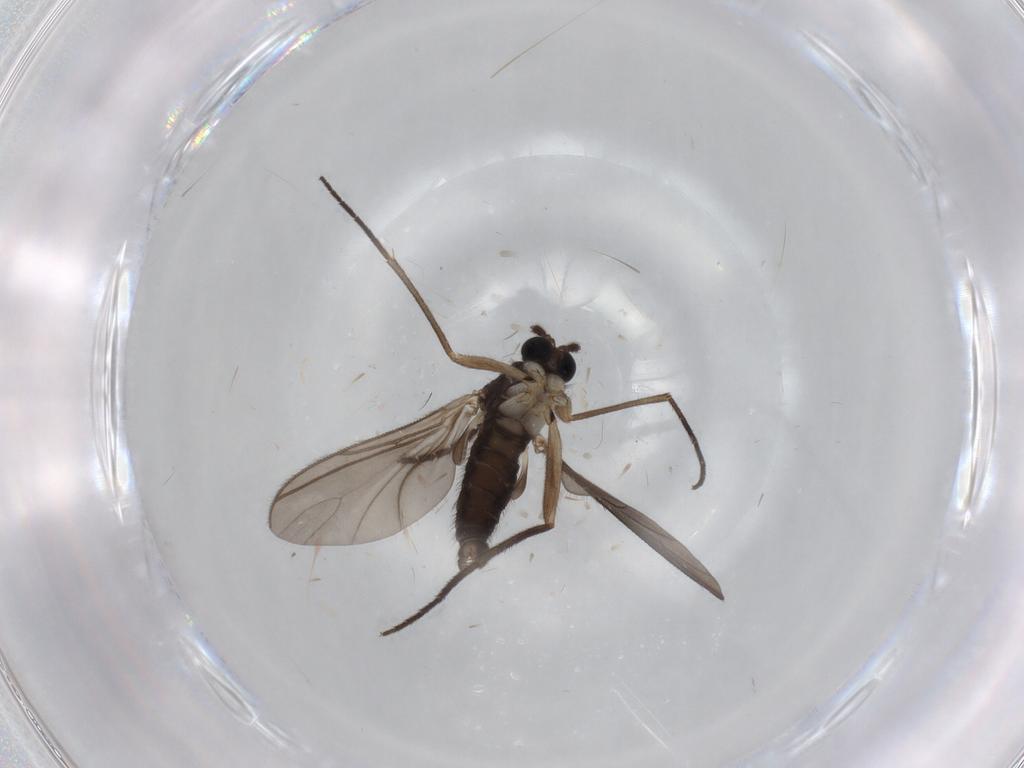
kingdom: Animalia
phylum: Arthropoda
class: Insecta
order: Diptera
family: Sciaridae
